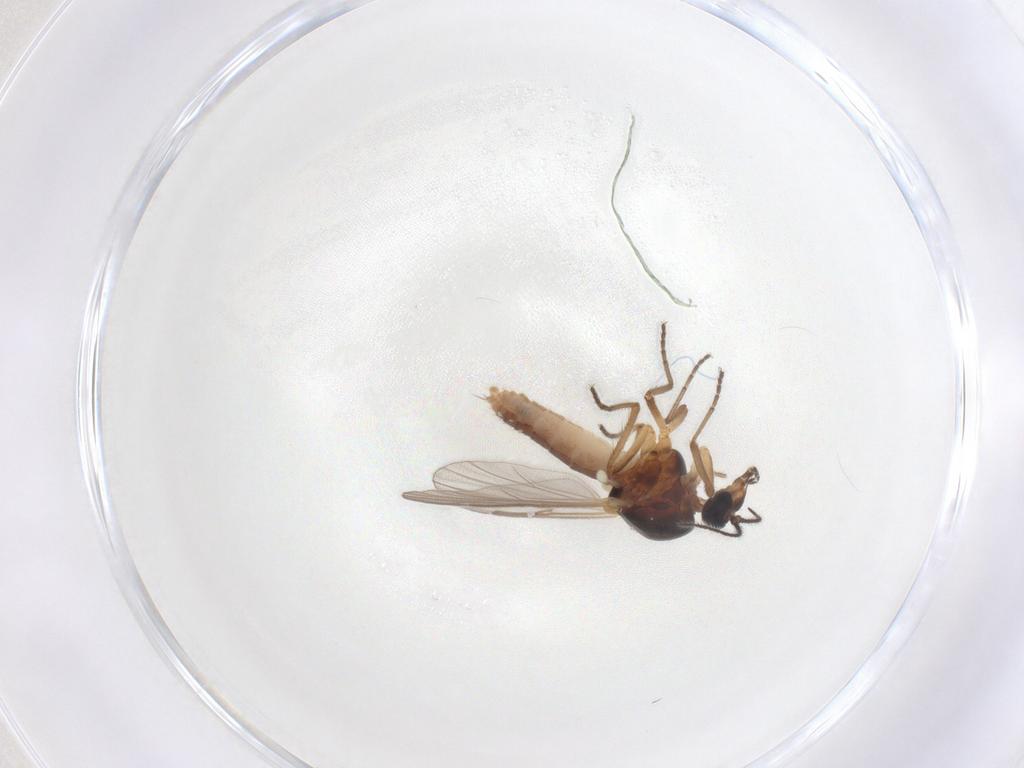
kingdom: Animalia
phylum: Arthropoda
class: Insecta
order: Diptera
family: Ceratopogonidae
